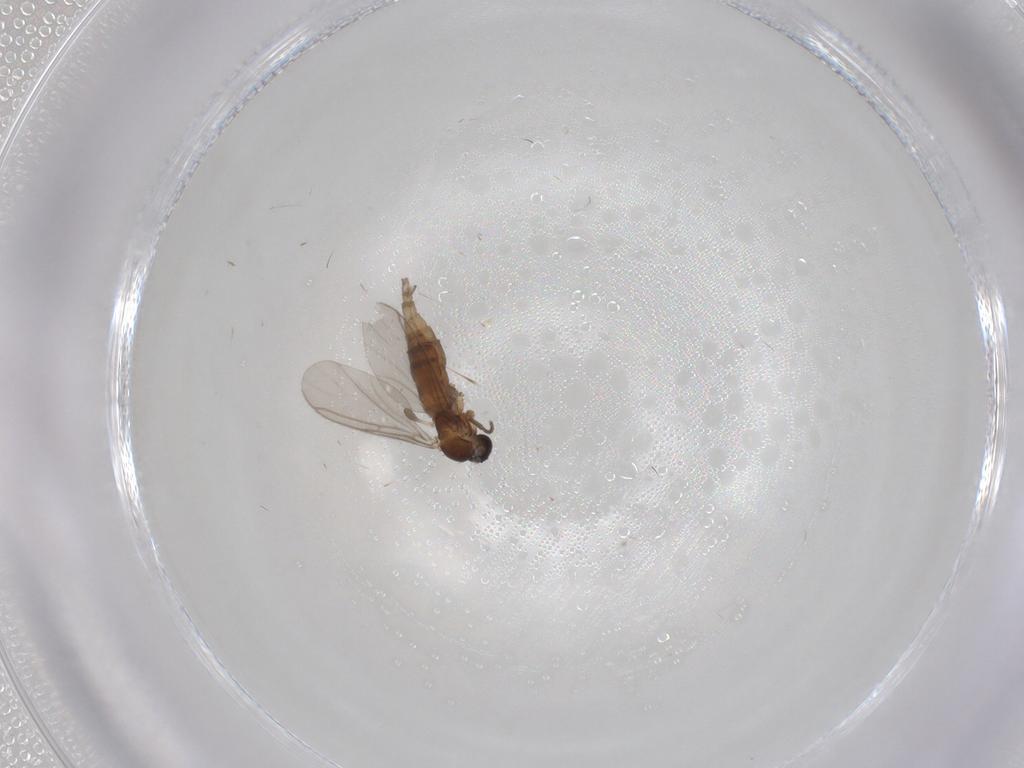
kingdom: Animalia
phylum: Arthropoda
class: Insecta
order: Diptera
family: Sciaridae
